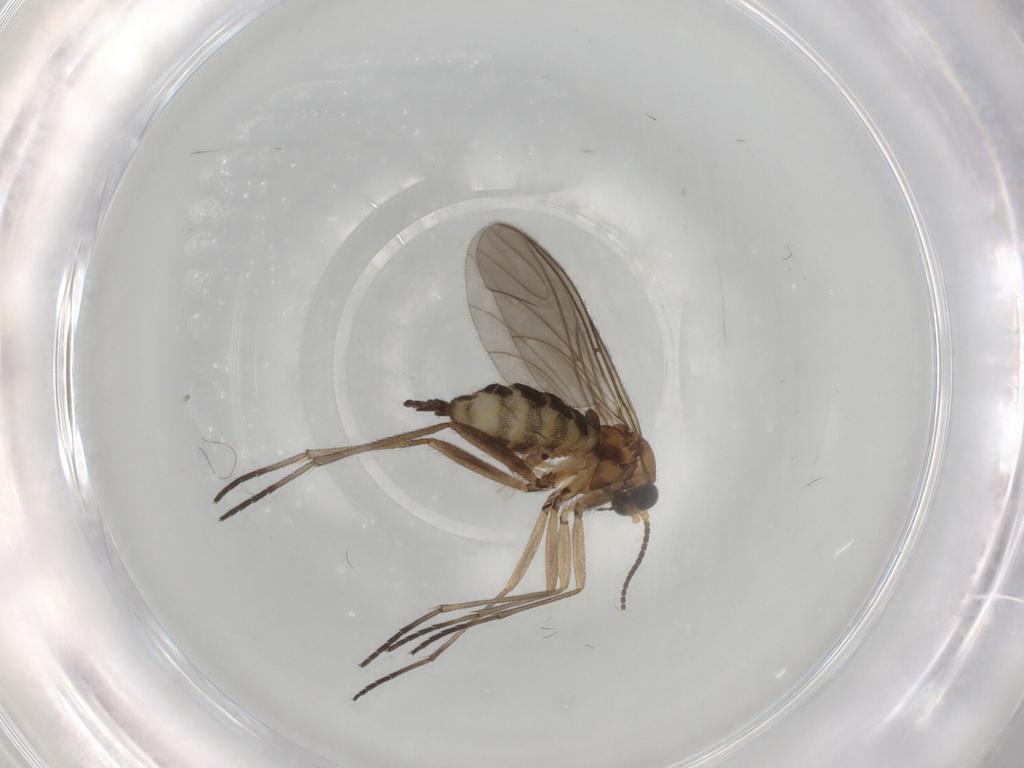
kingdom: Animalia
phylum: Arthropoda
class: Insecta
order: Diptera
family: Sciaridae
